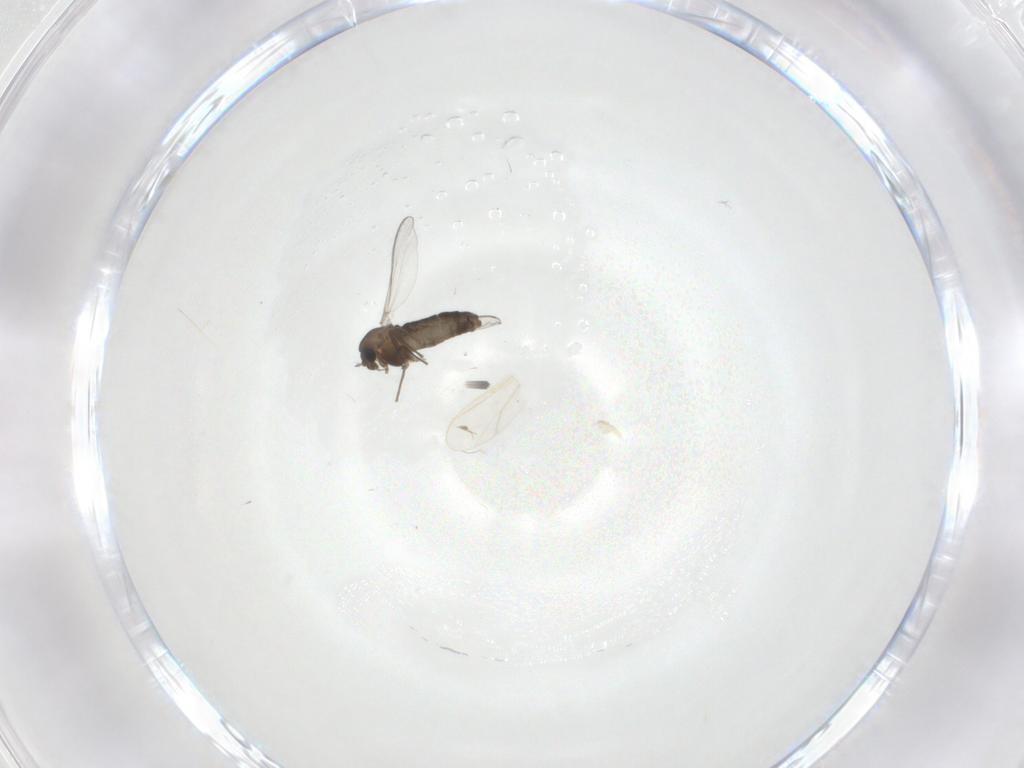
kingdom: Animalia
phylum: Arthropoda
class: Insecta
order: Diptera
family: Chironomidae
